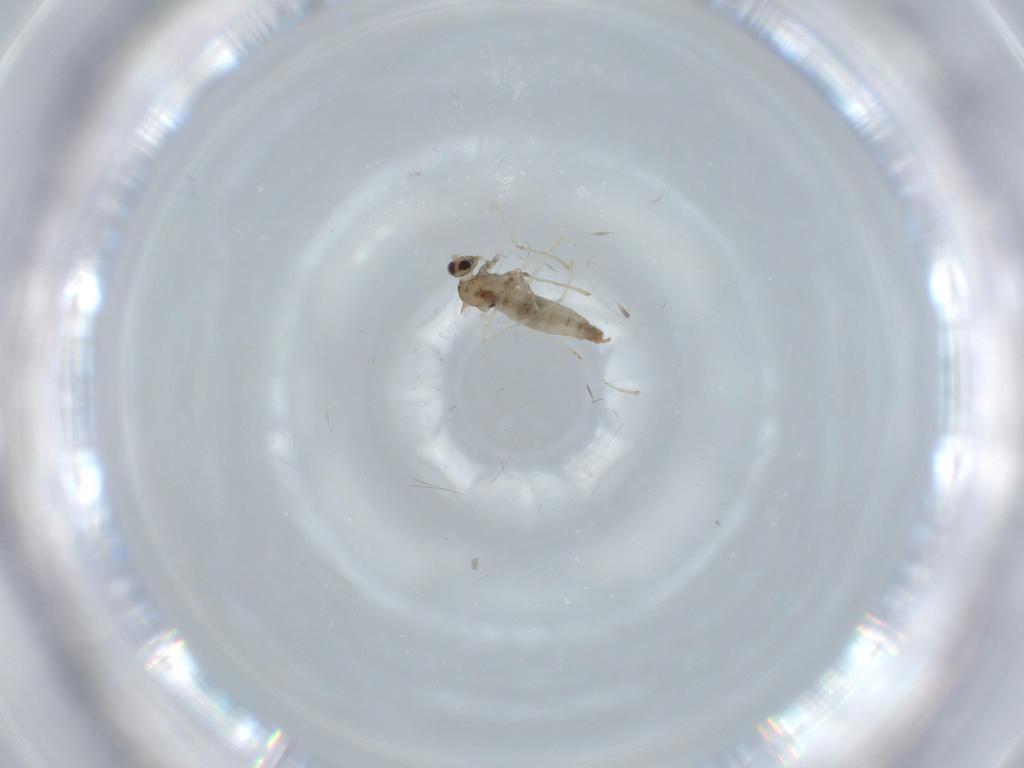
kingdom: Animalia
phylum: Arthropoda
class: Insecta
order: Diptera
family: Cecidomyiidae
